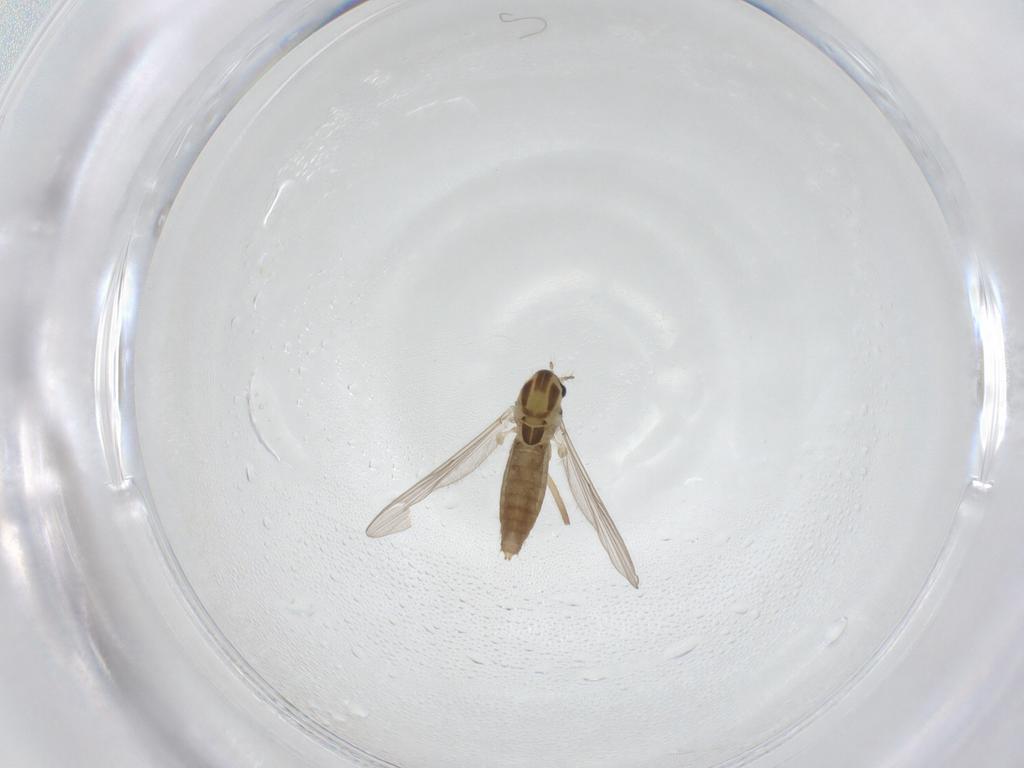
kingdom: Animalia
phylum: Arthropoda
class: Insecta
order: Diptera
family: Chironomidae
